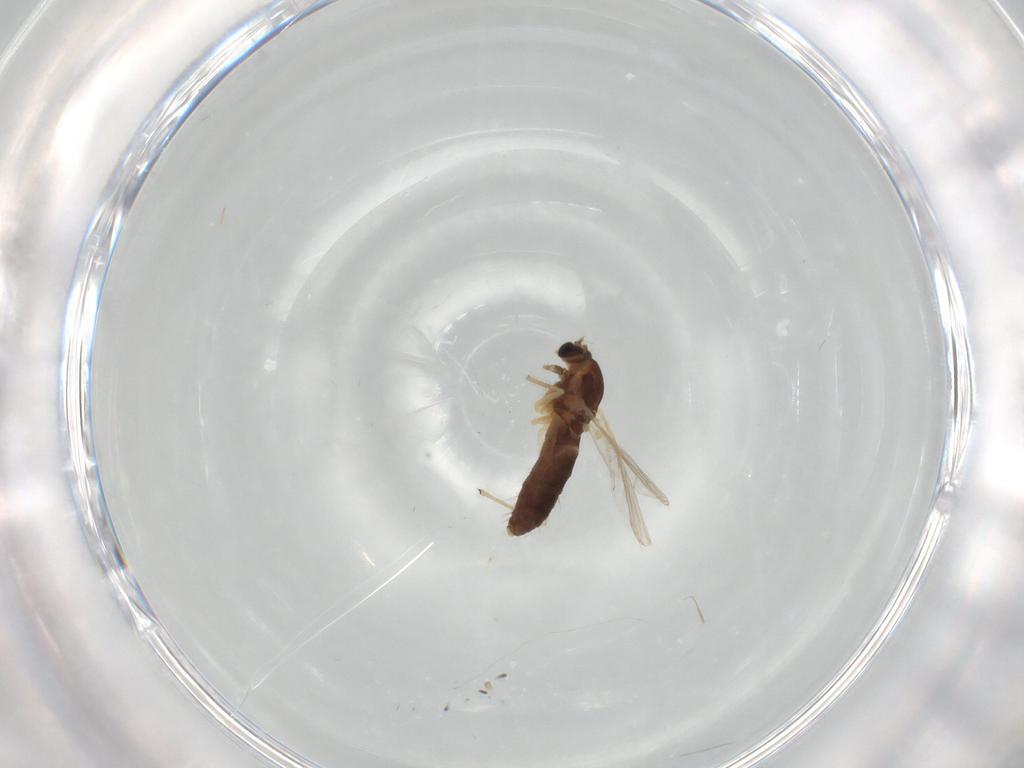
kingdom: Animalia
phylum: Arthropoda
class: Insecta
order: Diptera
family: Chironomidae
